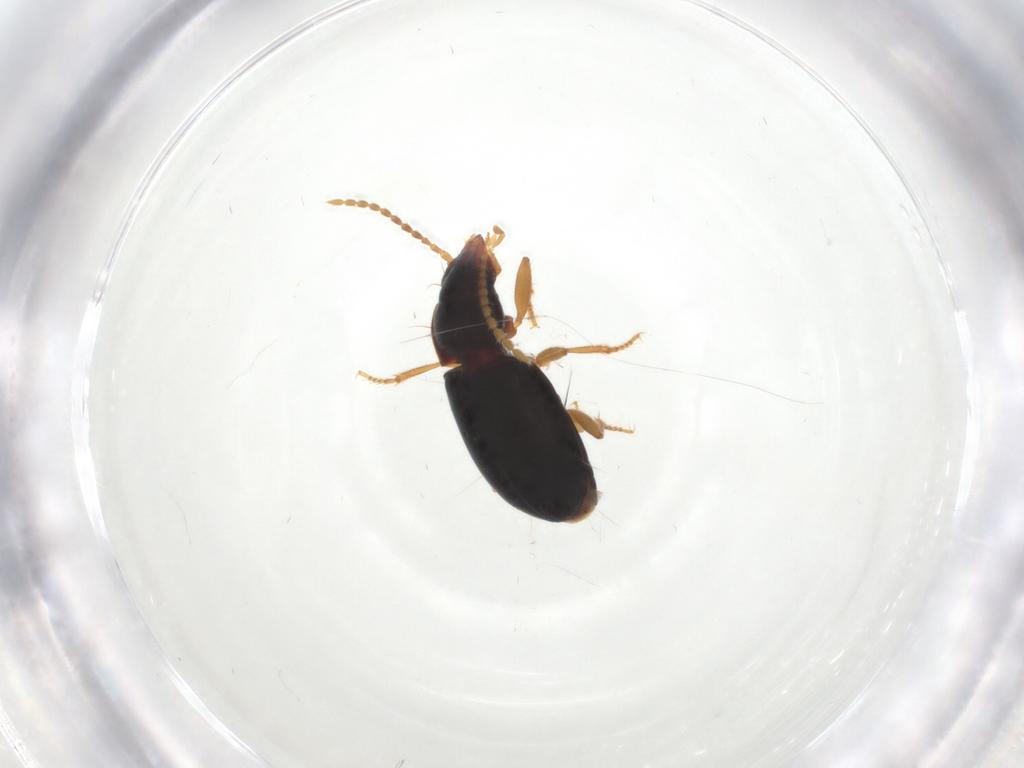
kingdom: Animalia
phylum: Arthropoda
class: Insecta
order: Coleoptera
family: Carabidae
